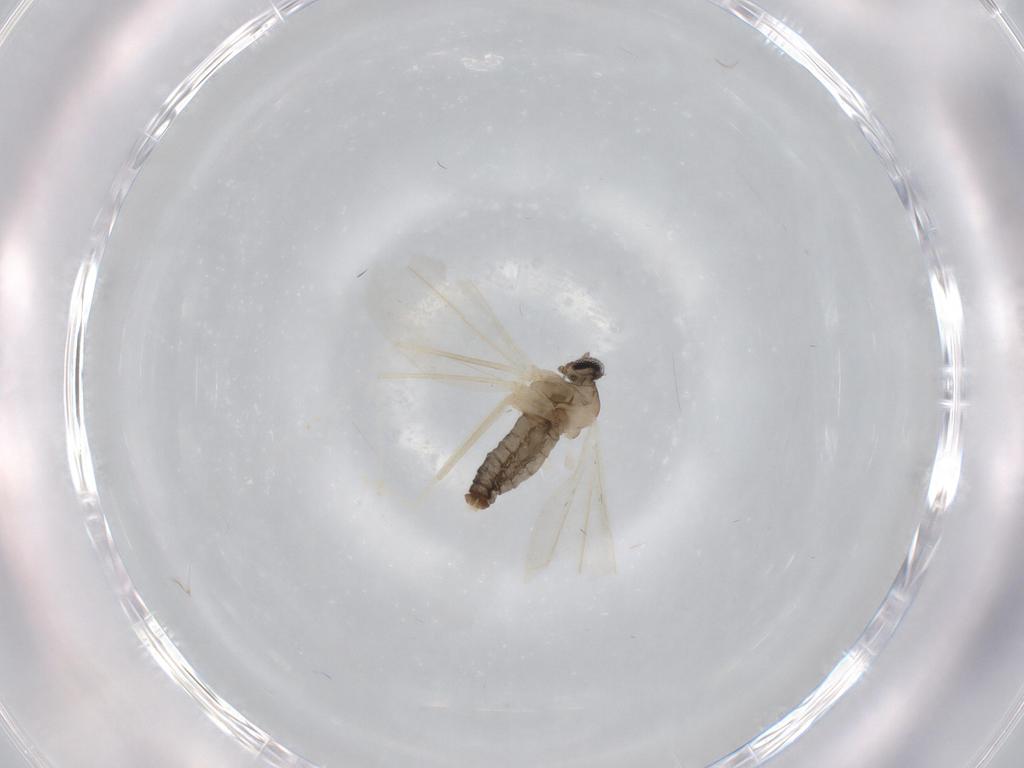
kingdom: Animalia
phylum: Arthropoda
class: Insecta
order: Diptera
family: Cecidomyiidae
